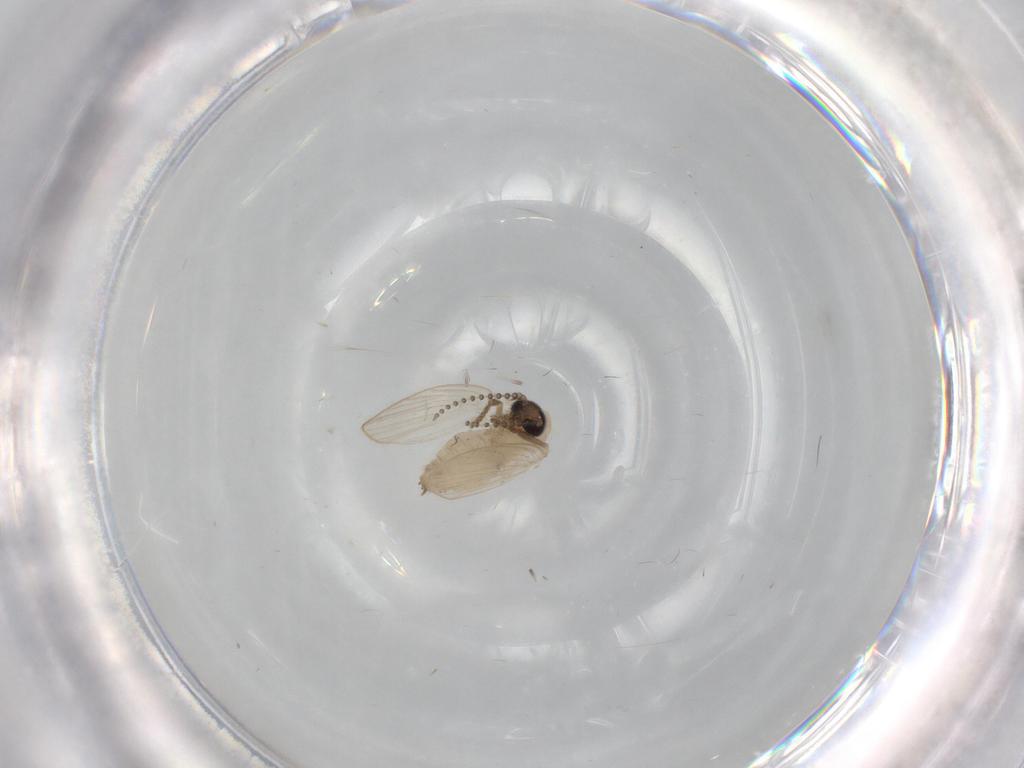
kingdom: Animalia
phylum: Arthropoda
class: Insecta
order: Diptera
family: Psychodidae
